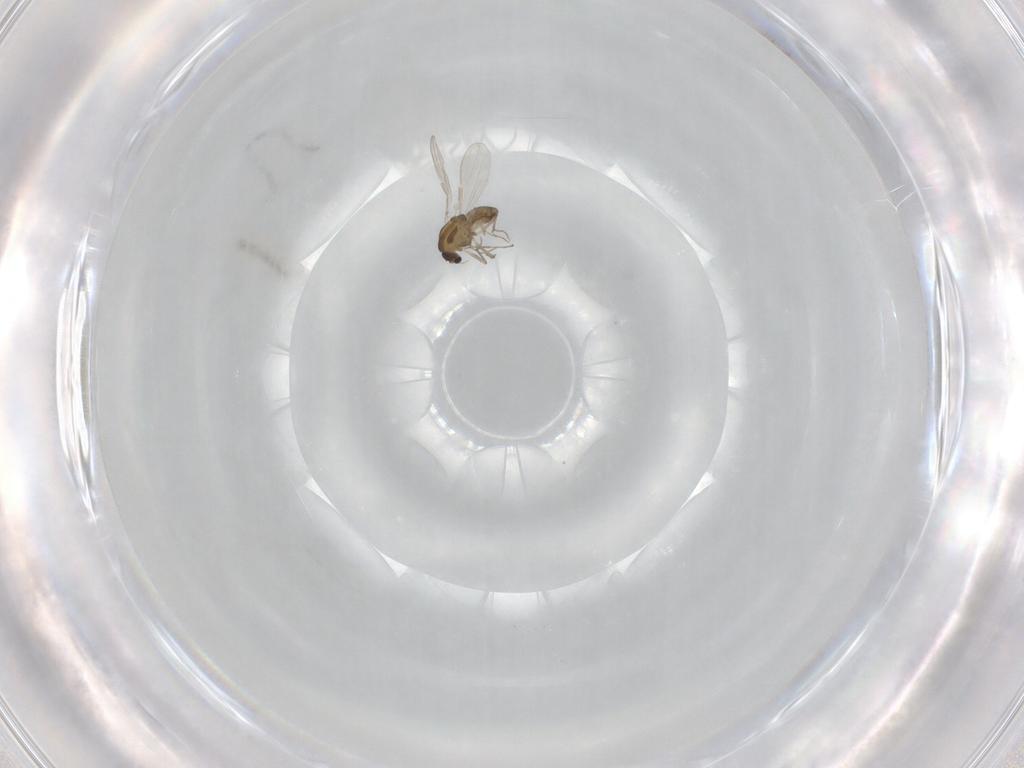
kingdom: Animalia
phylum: Arthropoda
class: Insecta
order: Diptera
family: Chironomidae
